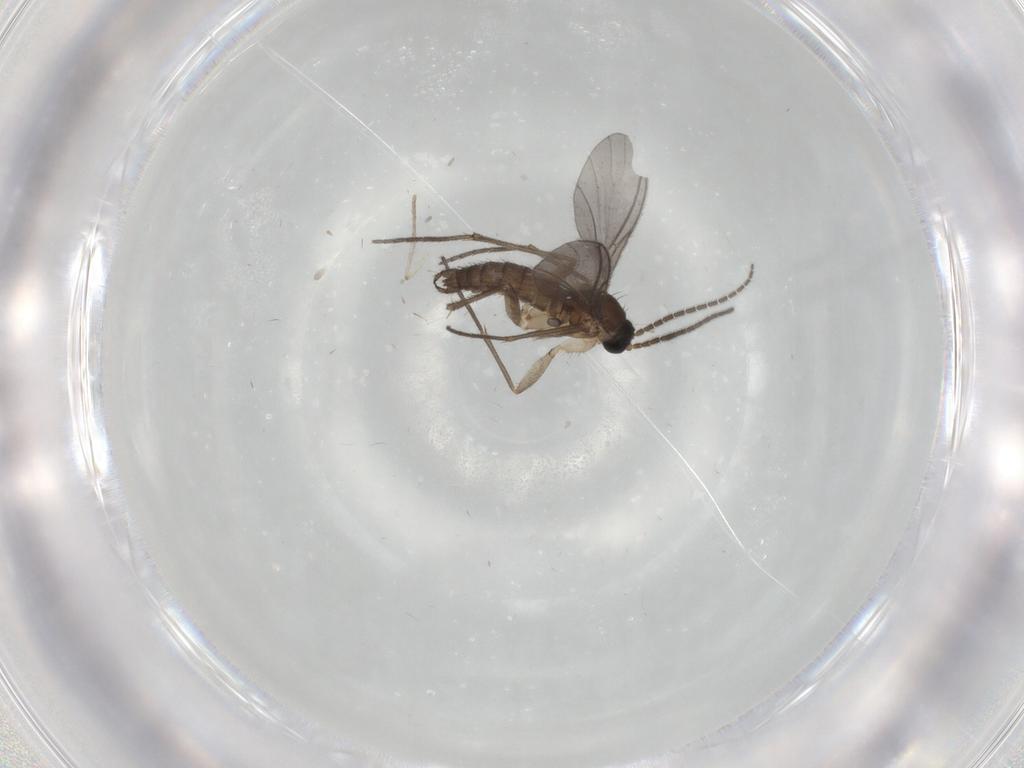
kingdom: Animalia
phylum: Arthropoda
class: Insecta
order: Diptera
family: Sciaridae
